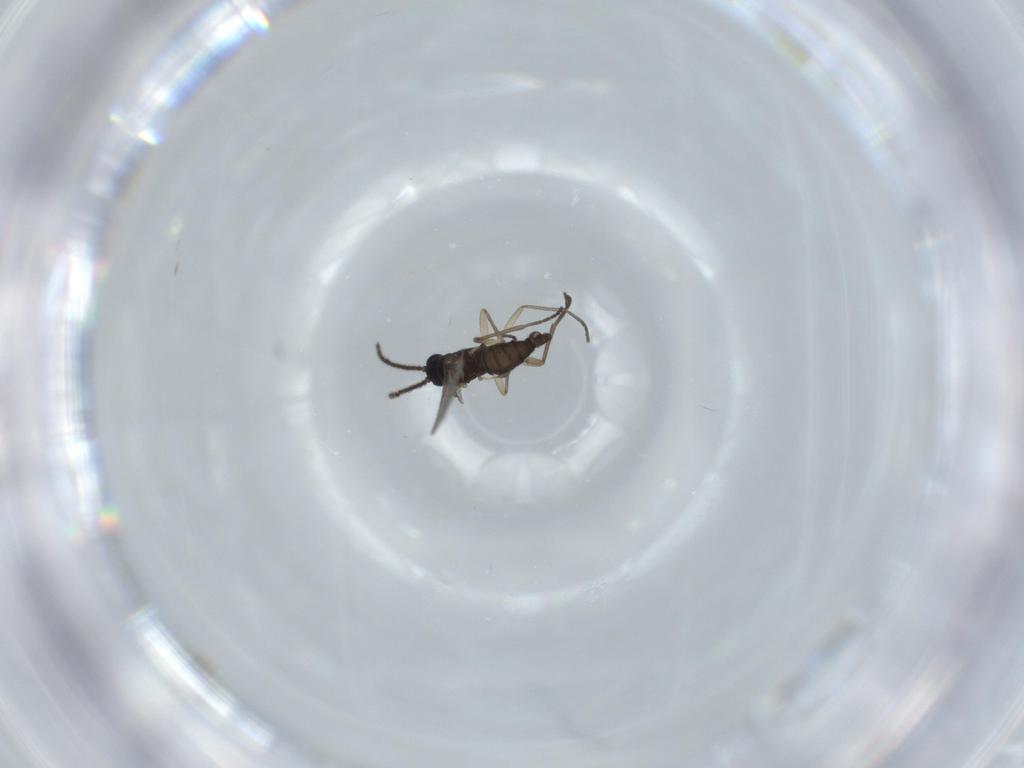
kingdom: Animalia
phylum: Arthropoda
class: Insecta
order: Diptera
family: Sciaridae
